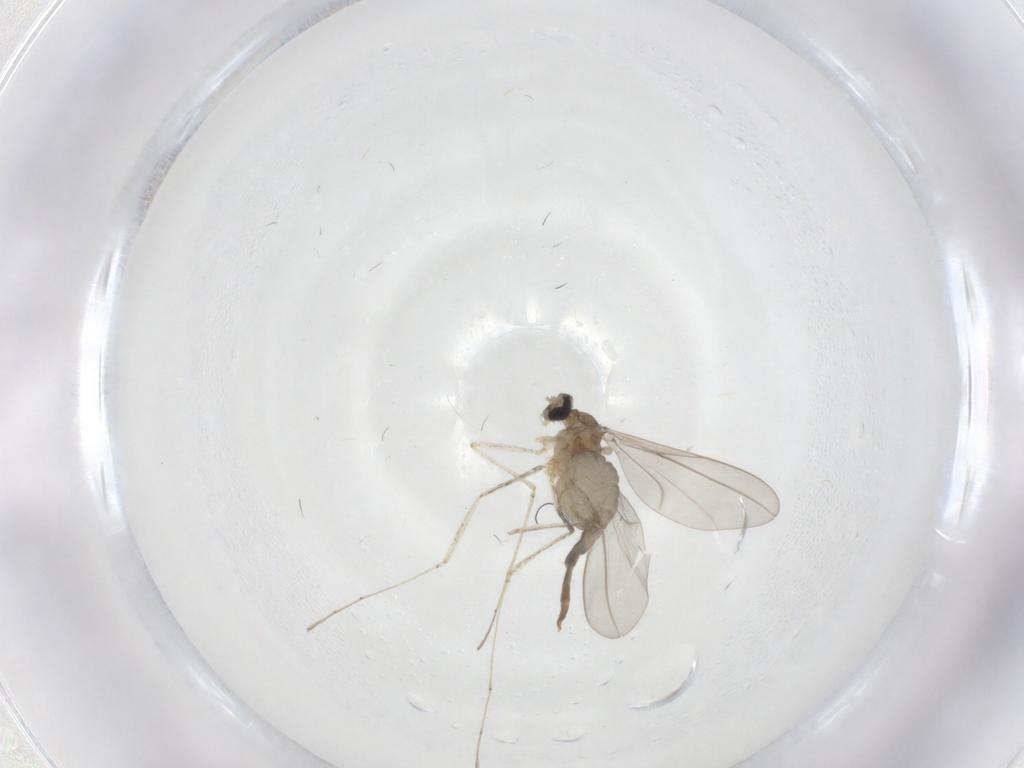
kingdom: Animalia
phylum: Arthropoda
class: Insecta
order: Diptera
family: Cecidomyiidae
